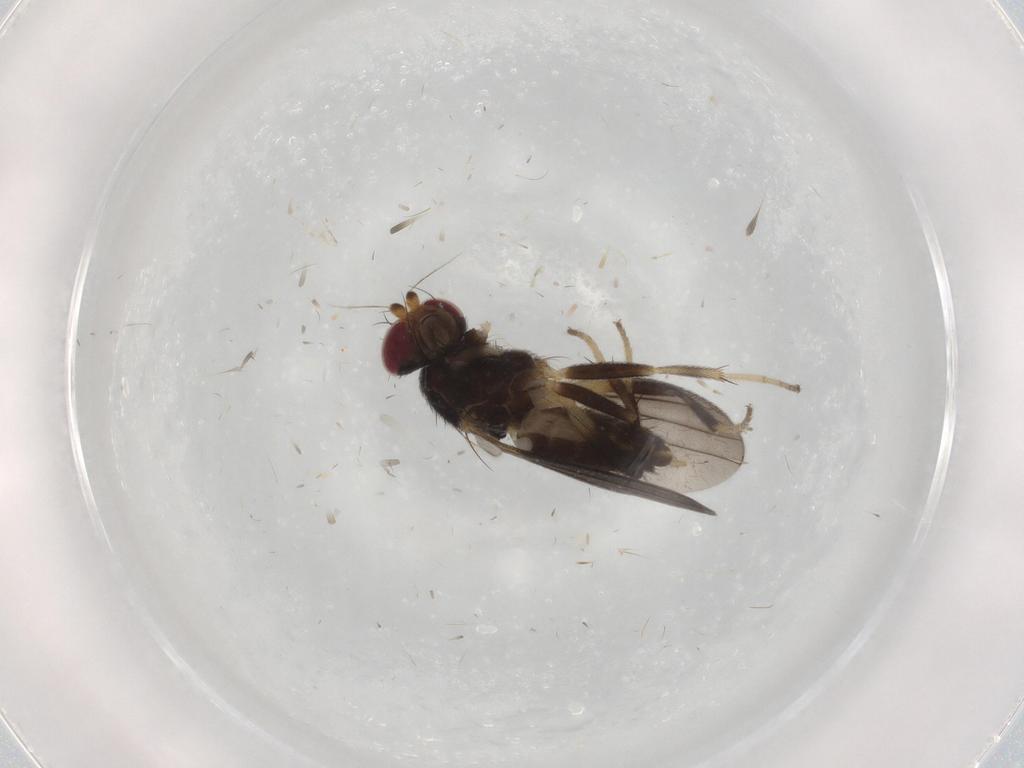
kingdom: Animalia
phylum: Arthropoda
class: Insecta
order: Diptera
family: Clusiidae
